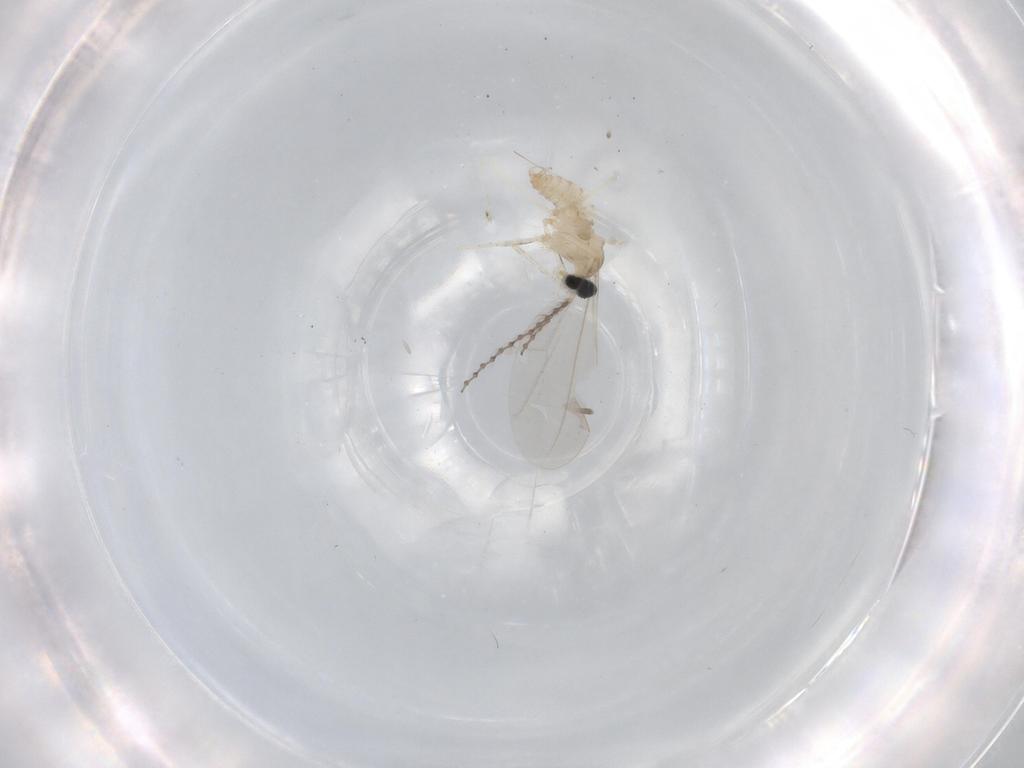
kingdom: Animalia
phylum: Arthropoda
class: Insecta
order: Diptera
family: Cecidomyiidae
